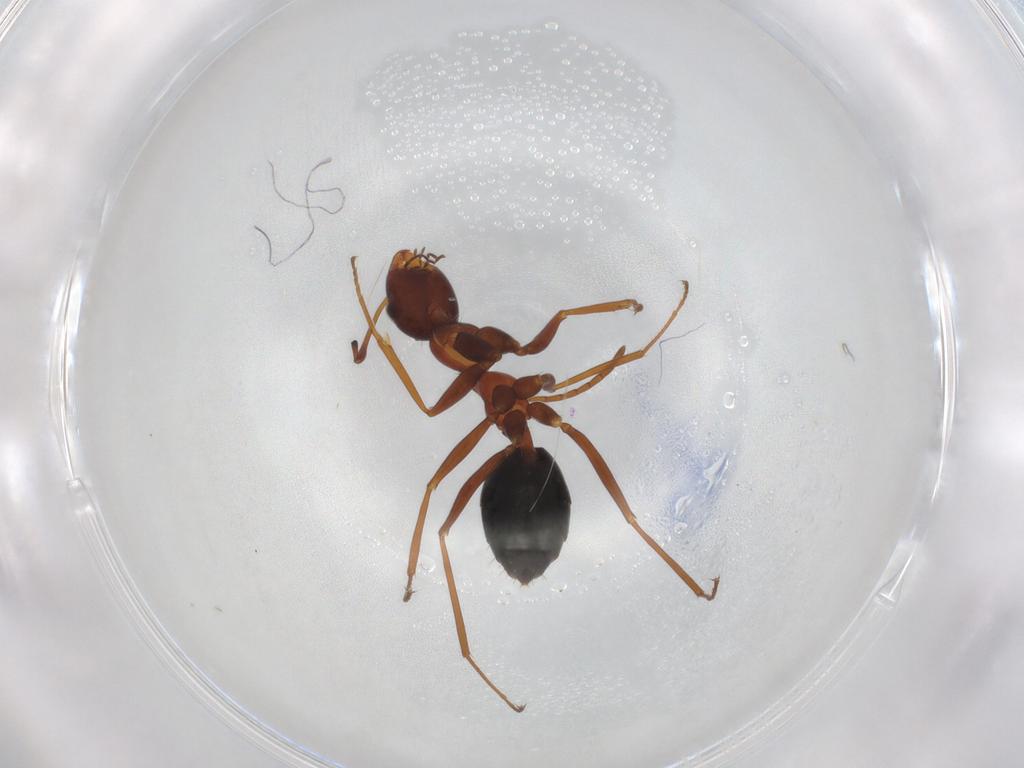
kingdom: Animalia
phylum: Arthropoda
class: Insecta
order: Hymenoptera
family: Formicidae
